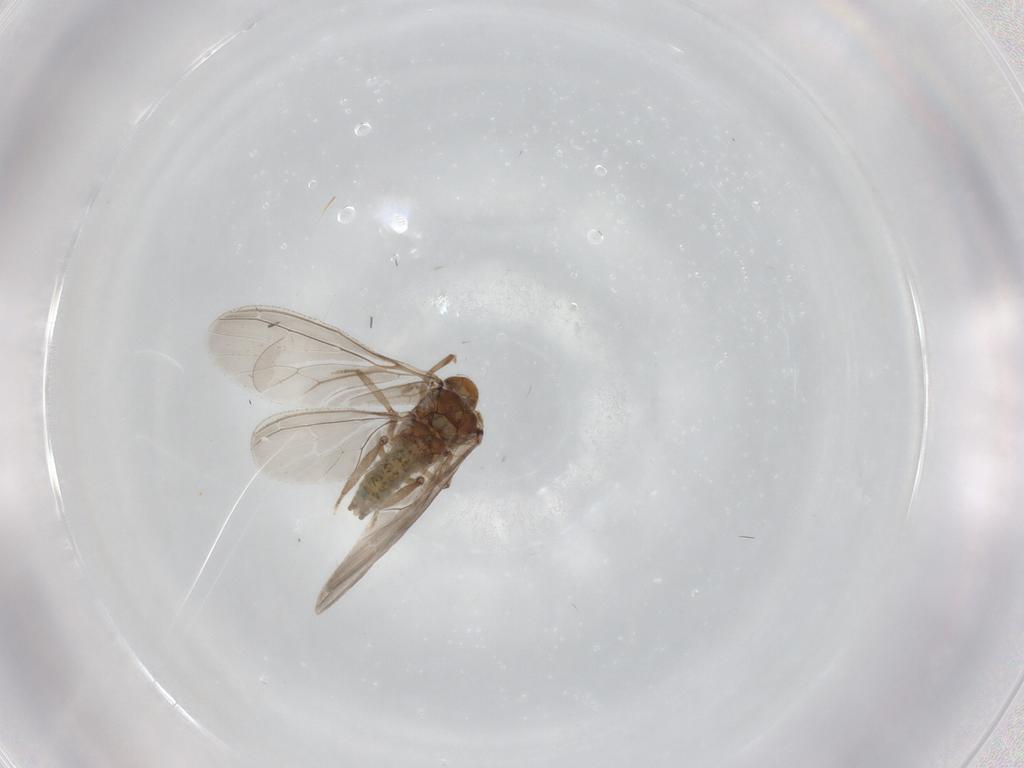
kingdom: Animalia
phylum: Arthropoda
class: Insecta
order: Neuroptera
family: Coniopterygidae
